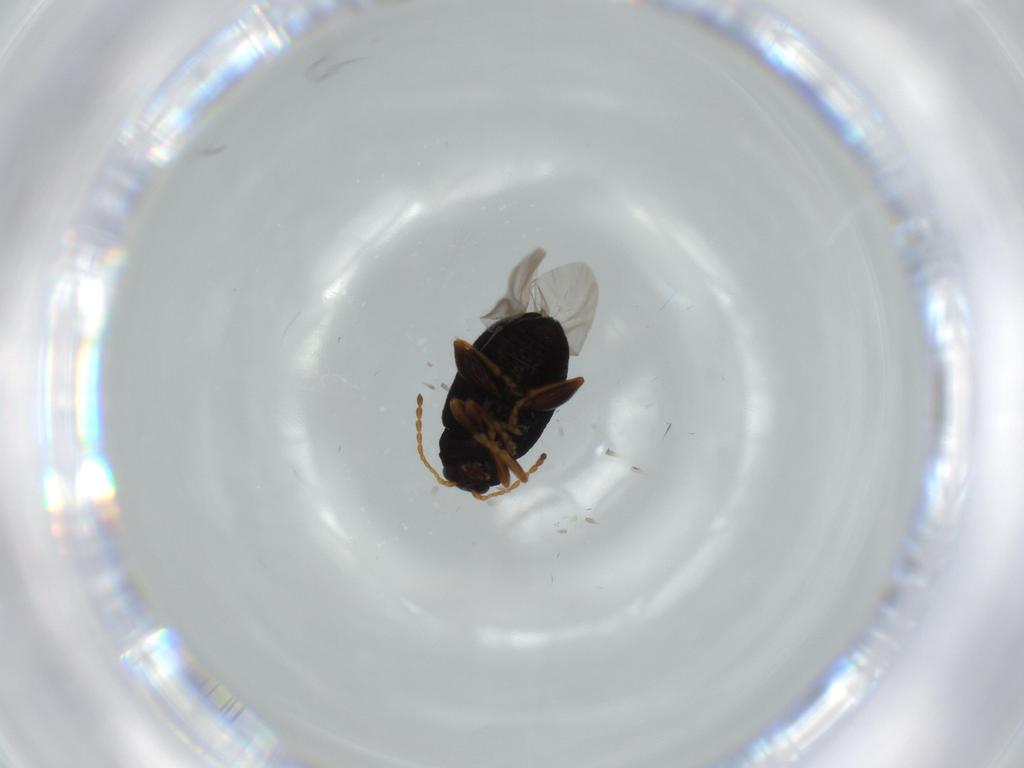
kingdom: Animalia
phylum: Arthropoda
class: Insecta
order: Coleoptera
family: Chrysomelidae
